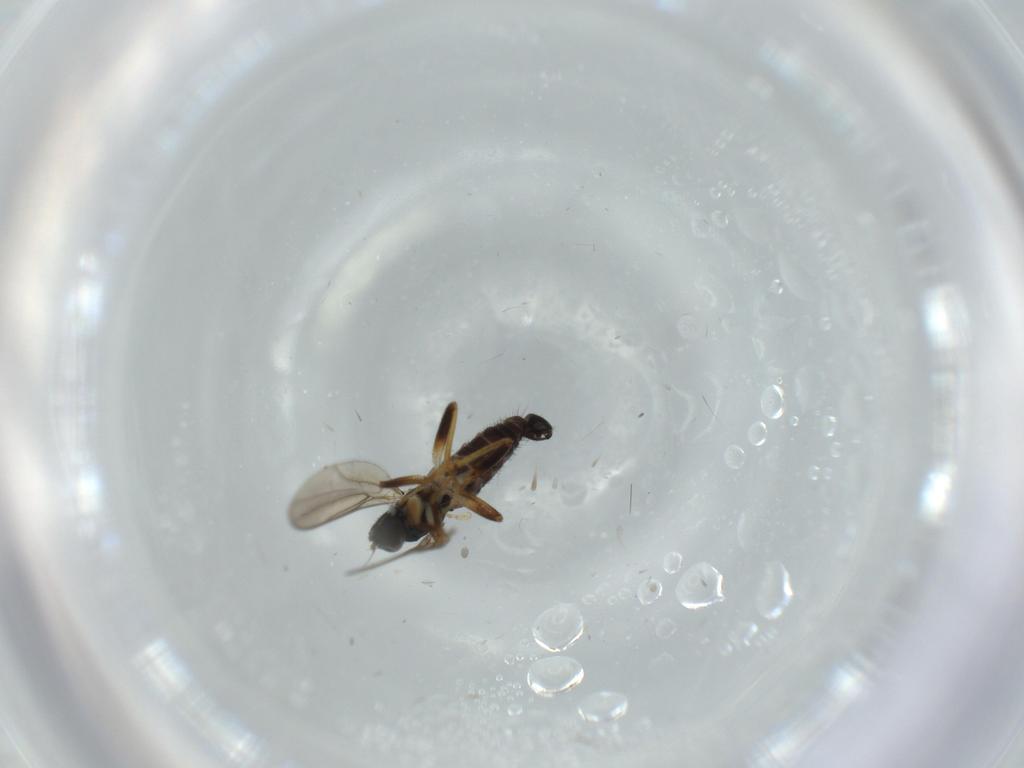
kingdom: Animalia
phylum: Arthropoda
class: Insecta
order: Diptera
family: Hybotidae
